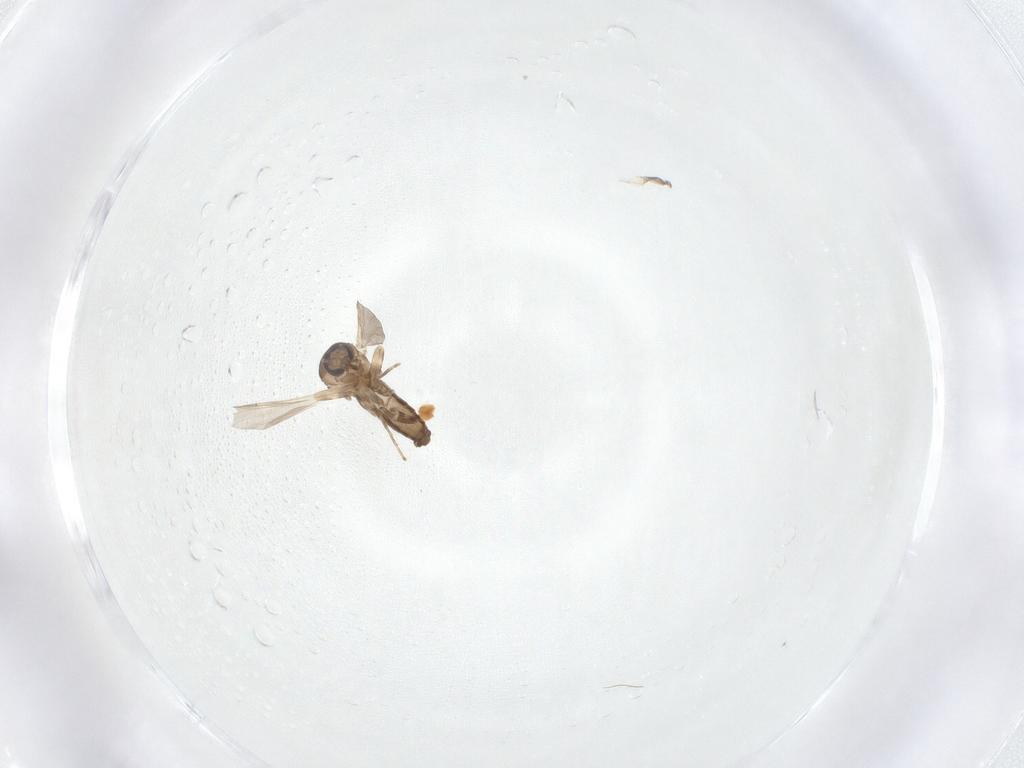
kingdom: Animalia
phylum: Arthropoda
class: Insecta
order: Diptera
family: Ceratopogonidae
